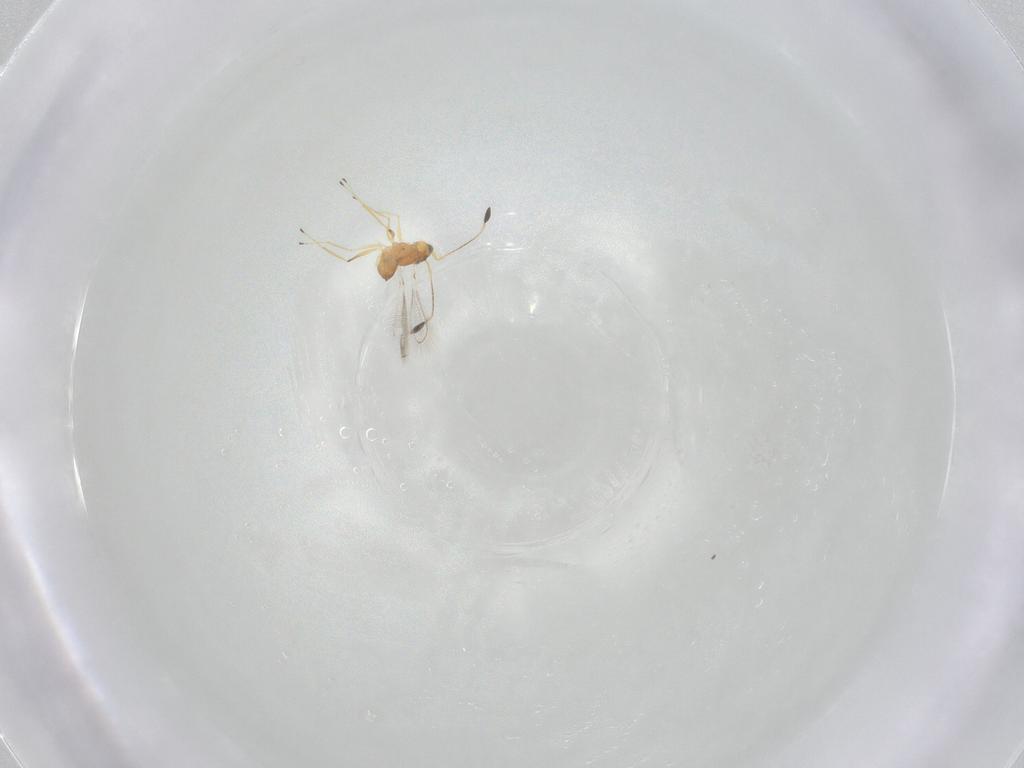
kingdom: Animalia
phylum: Arthropoda
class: Insecta
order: Hymenoptera
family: Mymaridae
